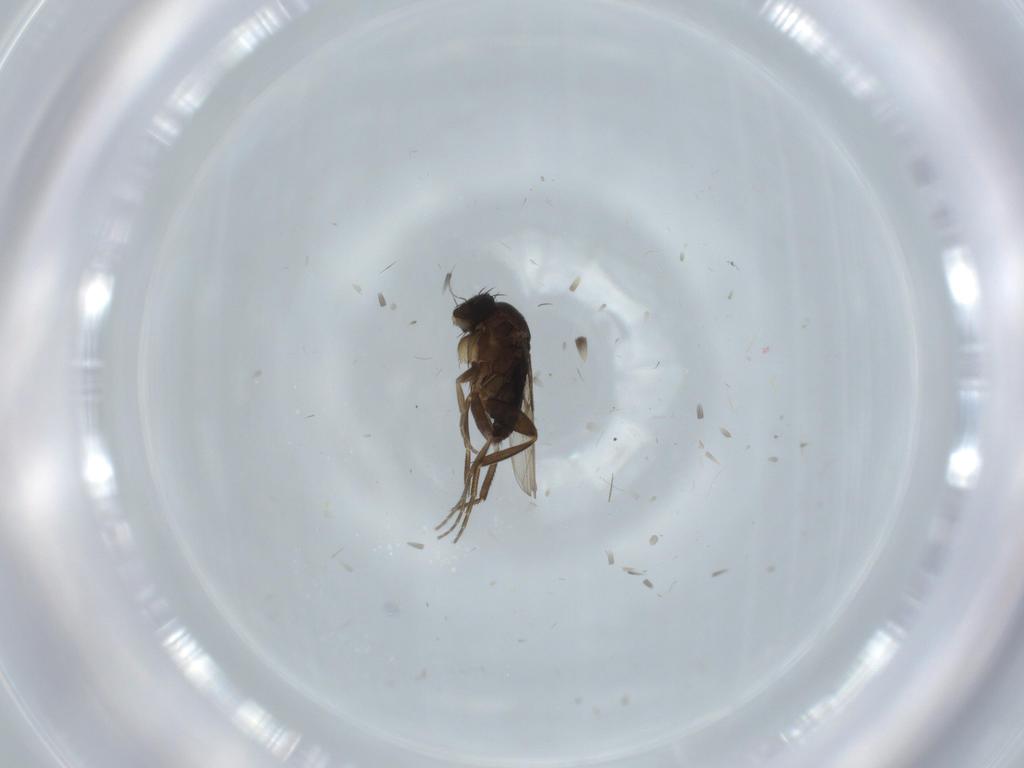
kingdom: Animalia
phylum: Arthropoda
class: Insecta
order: Diptera
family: Phoridae
